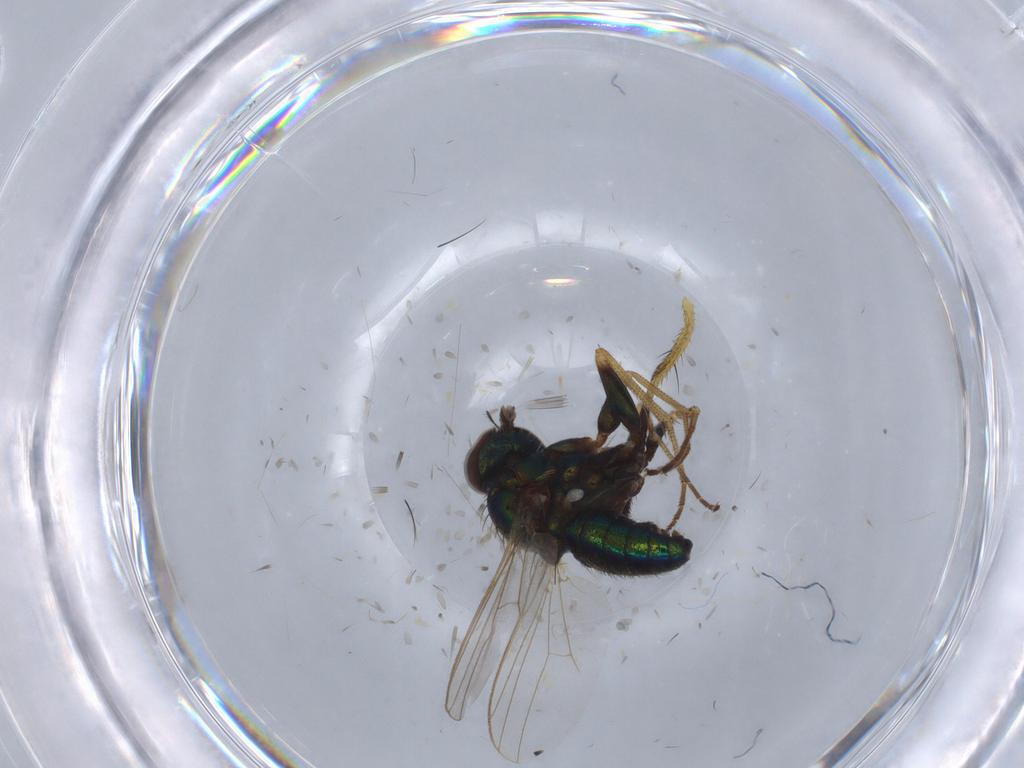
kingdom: Animalia
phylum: Arthropoda
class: Insecta
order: Diptera
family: Dolichopodidae
